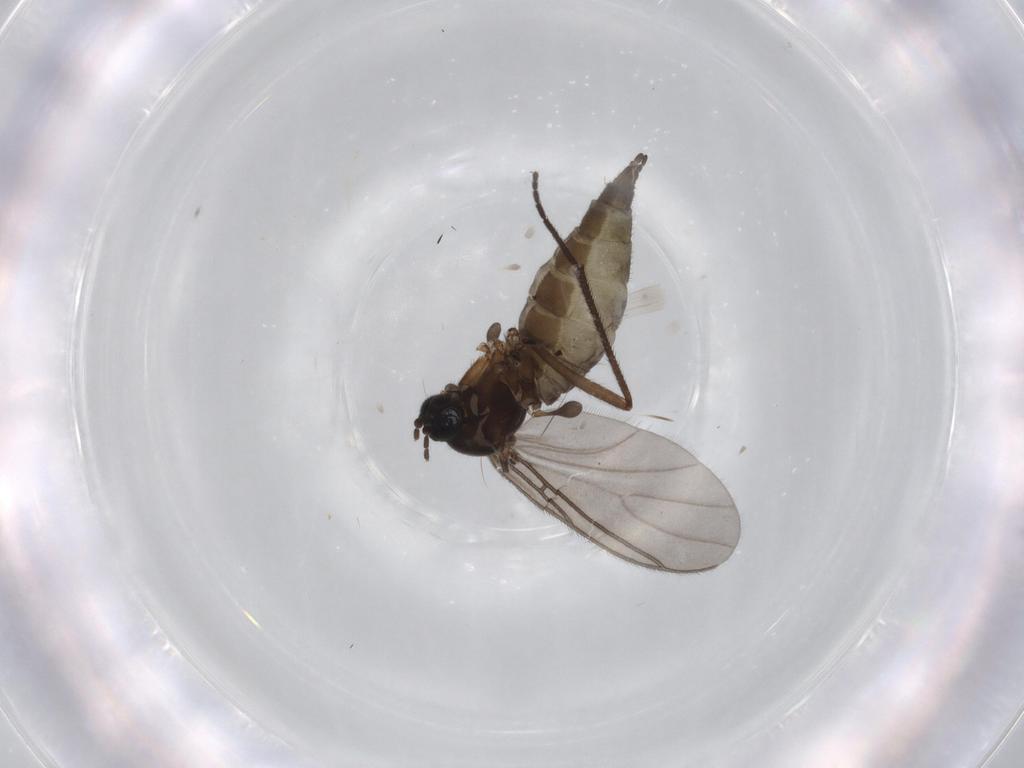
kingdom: Animalia
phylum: Arthropoda
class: Insecta
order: Diptera
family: Sciaridae
